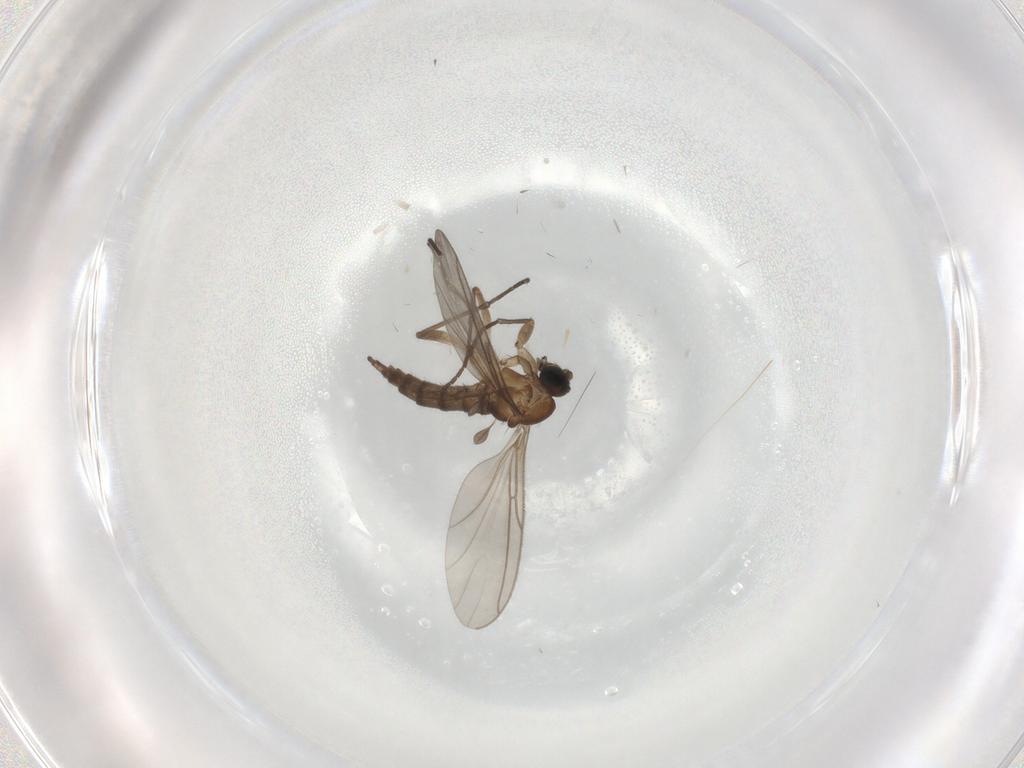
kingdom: Animalia
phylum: Arthropoda
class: Insecta
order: Diptera
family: Sciaridae
